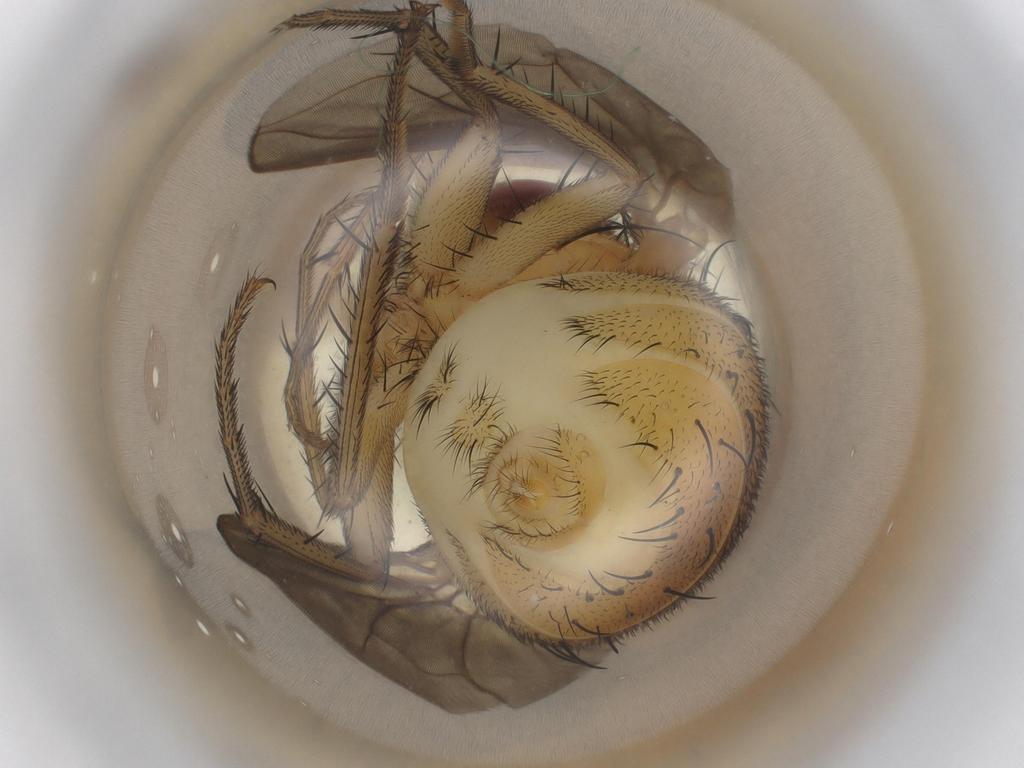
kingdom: Animalia
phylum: Arthropoda
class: Insecta
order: Diptera
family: Calliphoridae
